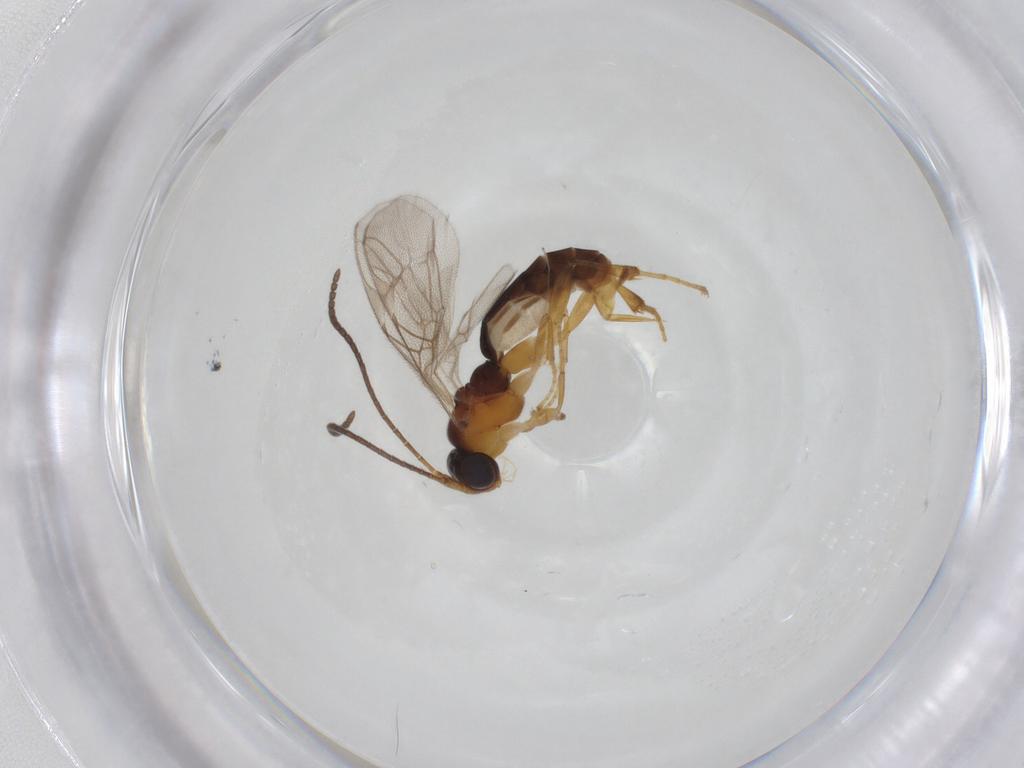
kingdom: Animalia
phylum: Arthropoda
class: Insecta
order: Hymenoptera
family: Ichneumonidae
